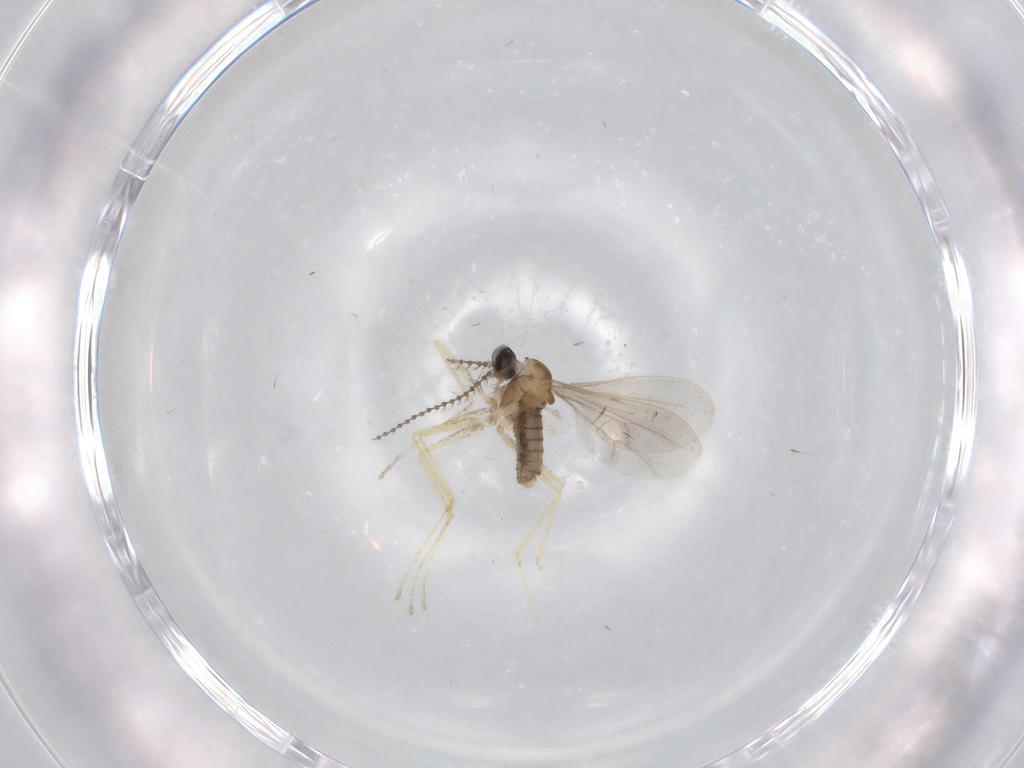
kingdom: Animalia
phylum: Arthropoda
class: Insecta
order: Diptera
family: Cecidomyiidae
